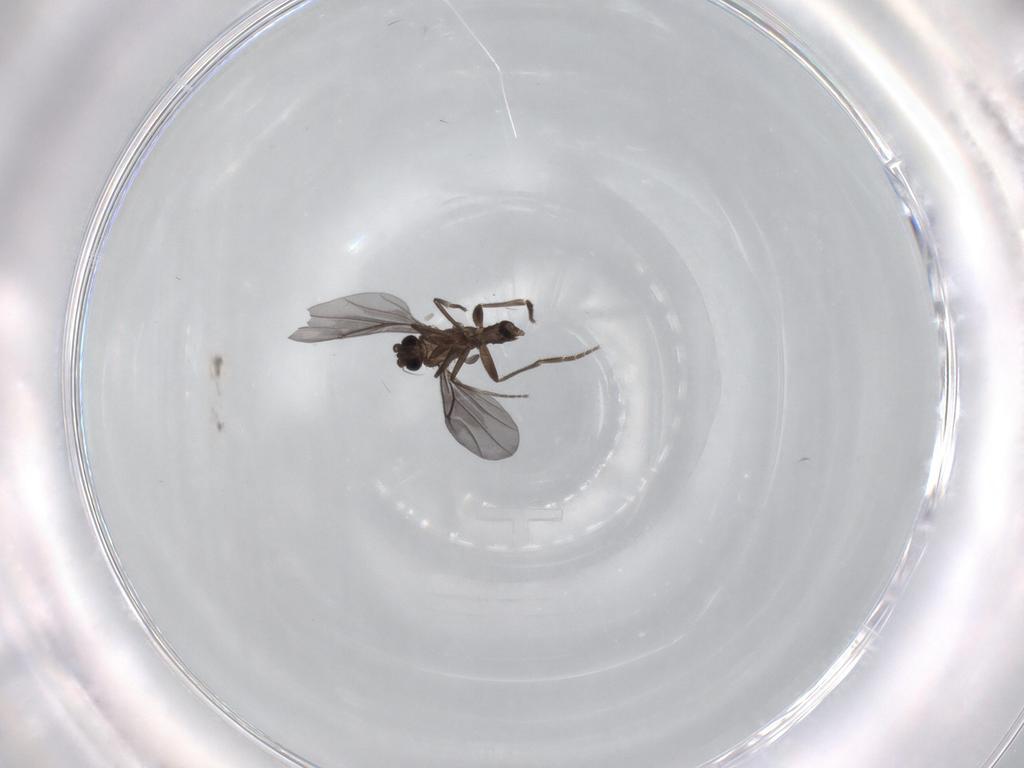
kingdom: Animalia
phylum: Arthropoda
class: Insecta
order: Diptera
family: Phoridae
